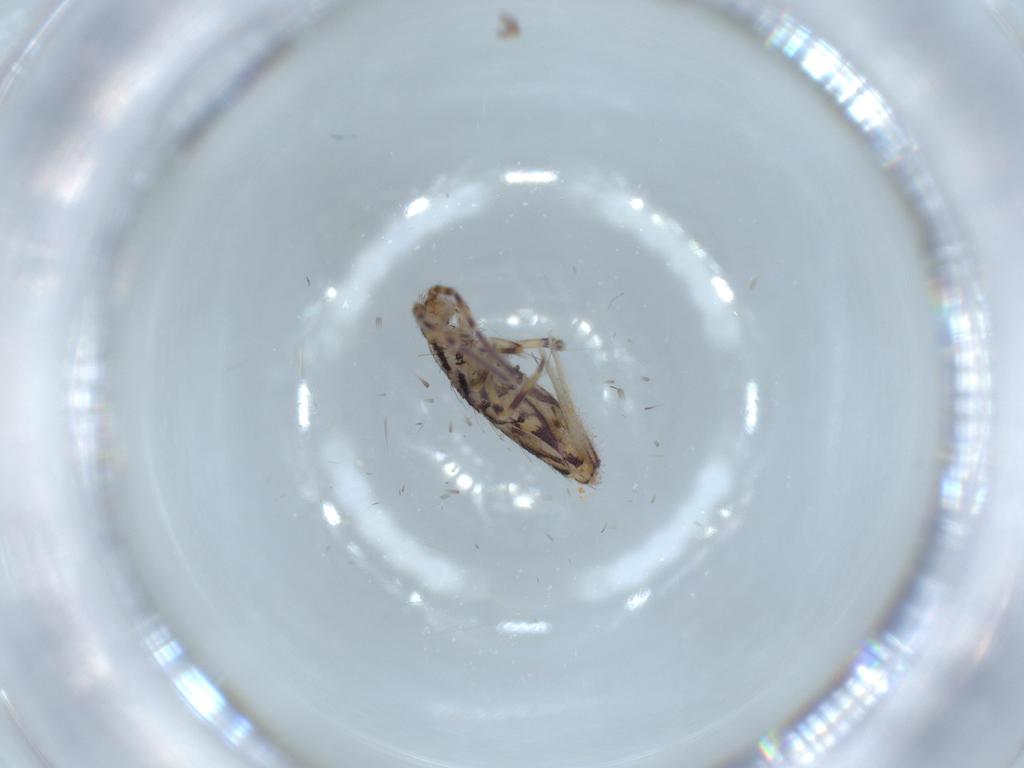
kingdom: Animalia
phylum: Arthropoda
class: Collembola
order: Entomobryomorpha
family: Entomobryidae
